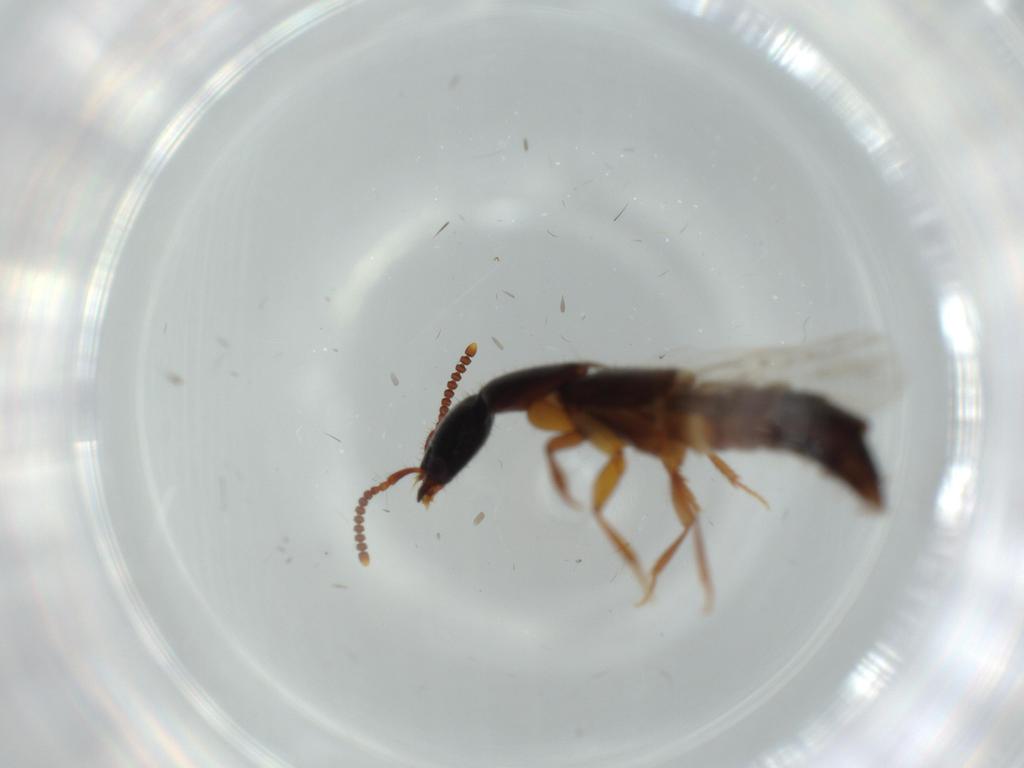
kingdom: Animalia
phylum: Arthropoda
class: Insecta
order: Coleoptera
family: Staphylinidae
